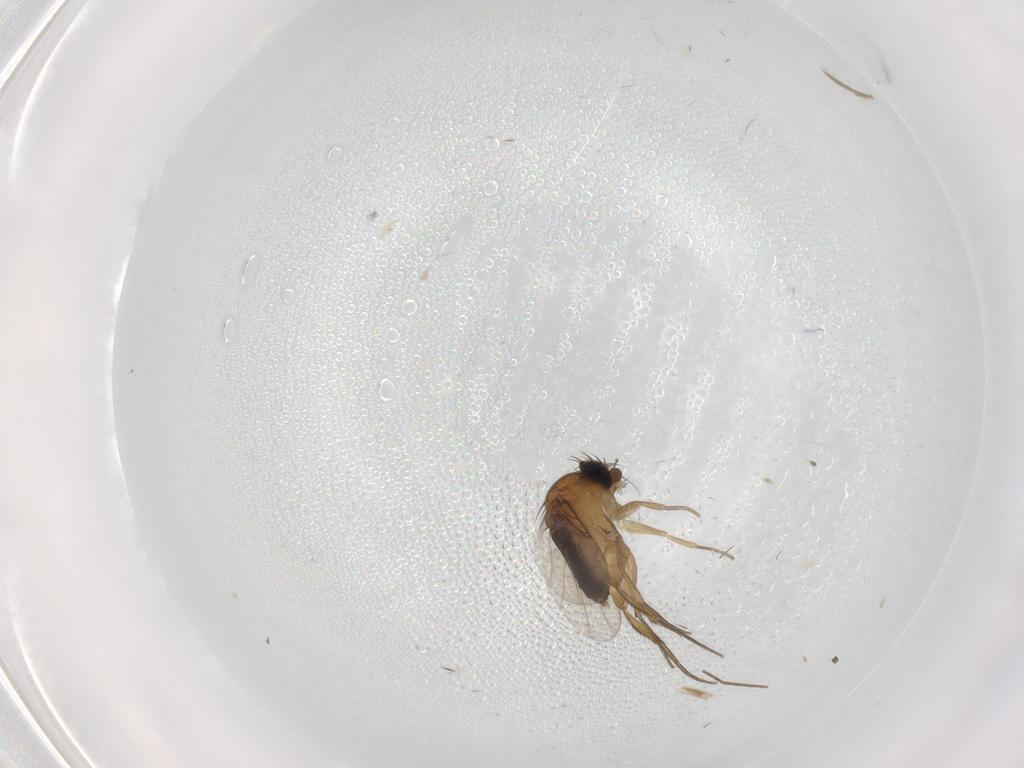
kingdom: Animalia
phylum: Arthropoda
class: Insecta
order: Diptera
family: Phoridae
